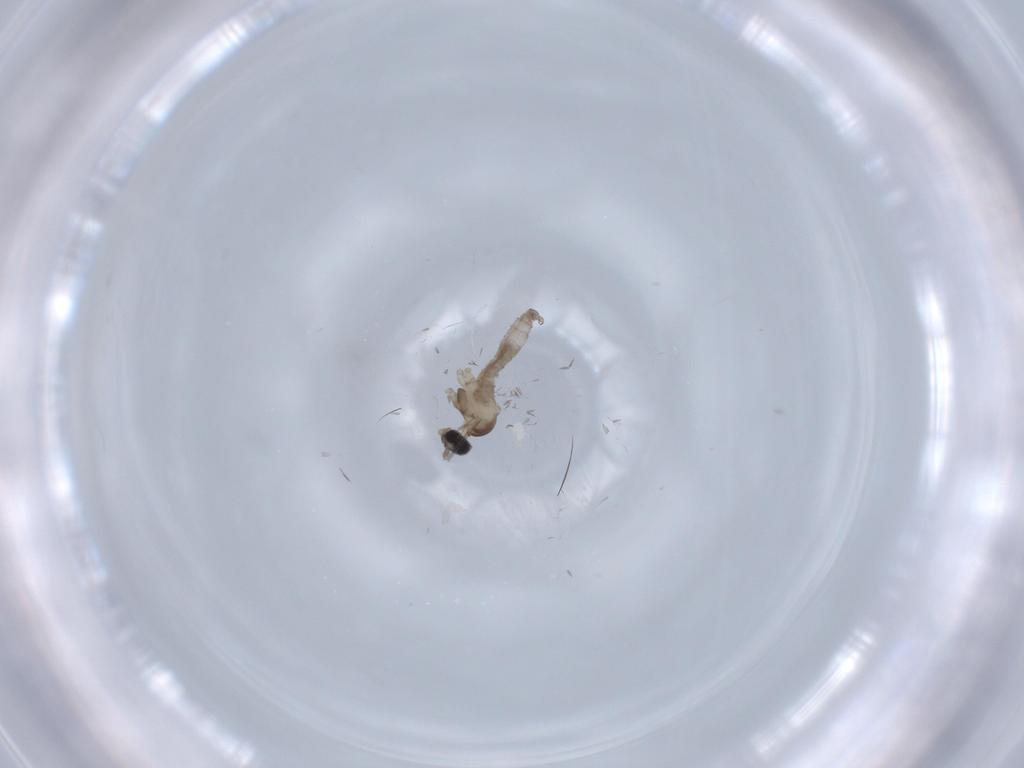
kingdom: Animalia
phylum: Arthropoda
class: Insecta
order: Diptera
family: Cecidomyiidae
